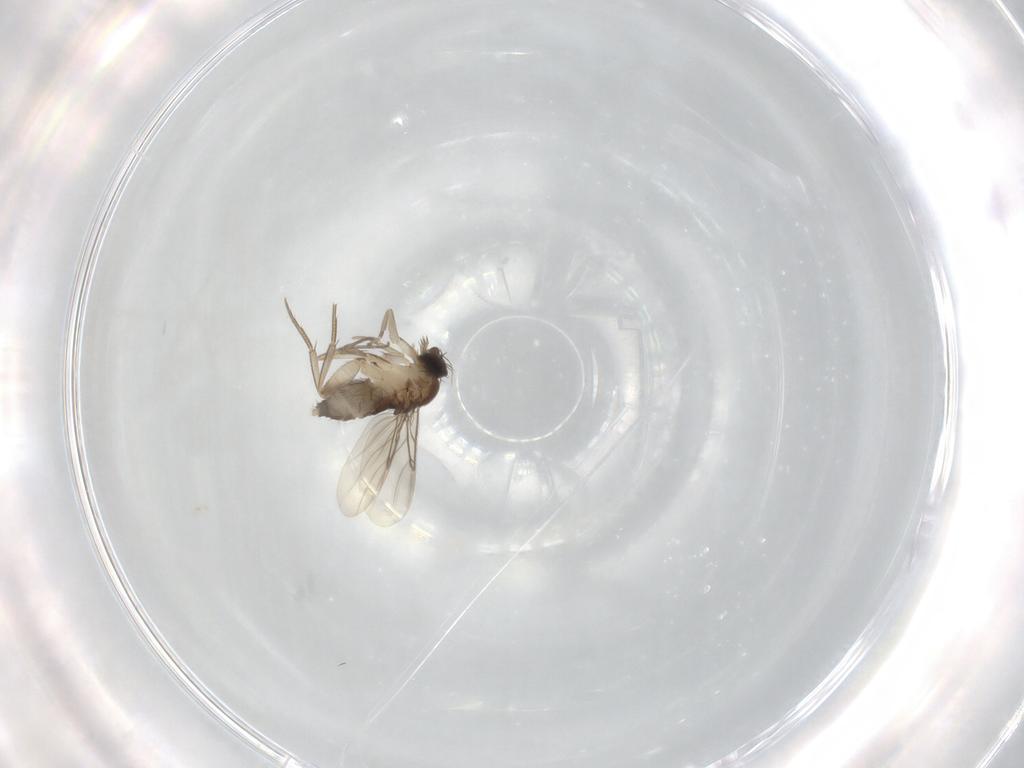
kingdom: Animalia
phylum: Arthropoda
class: Insecta
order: Diptera
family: Phoridae
